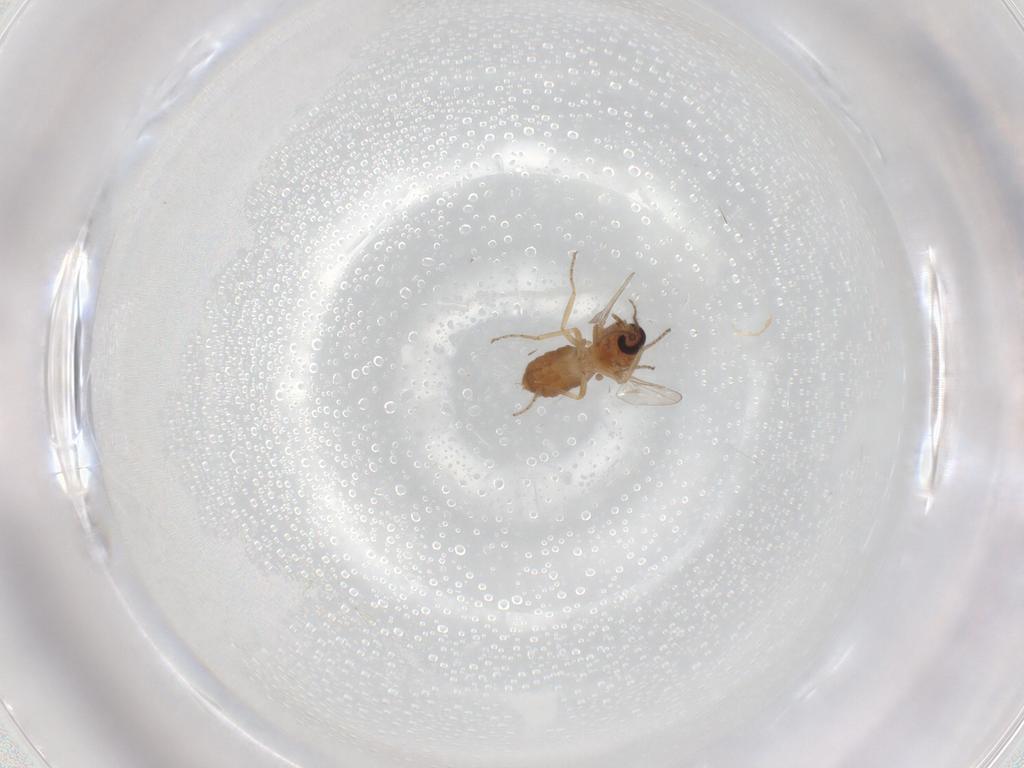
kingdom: Animalia
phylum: Arthropoda
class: Insecta
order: Diptera
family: Ceratopogonidae
